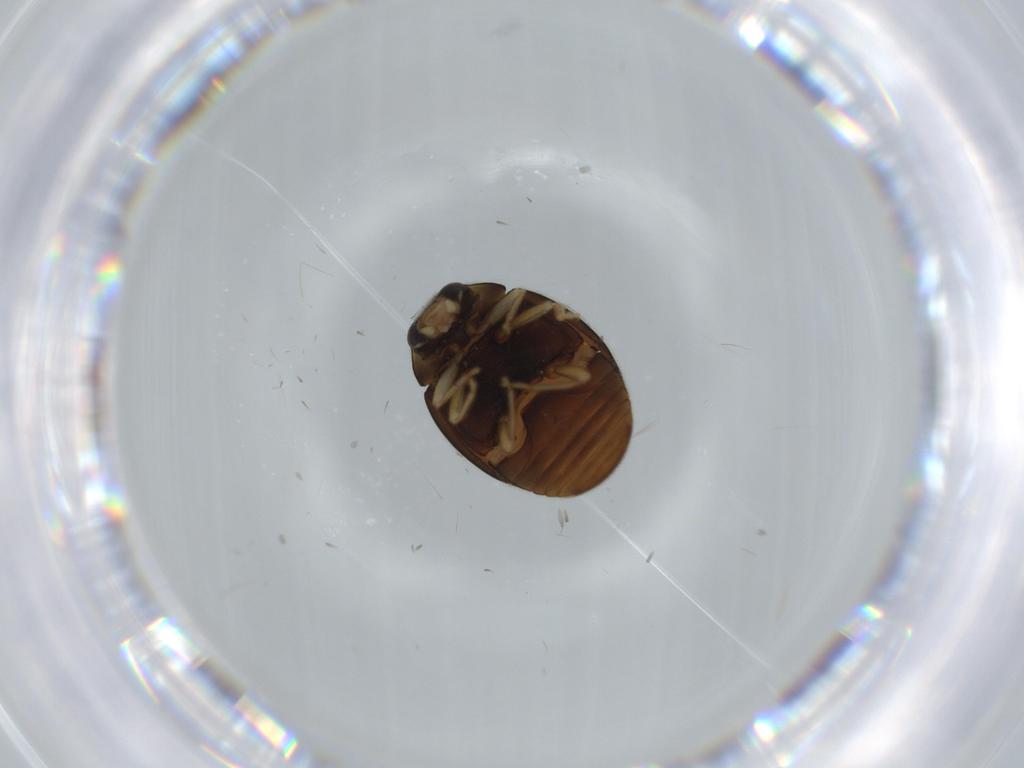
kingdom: Animalia
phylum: Arthropoda
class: Insecta
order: Coleoptera
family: Coccinellidae
